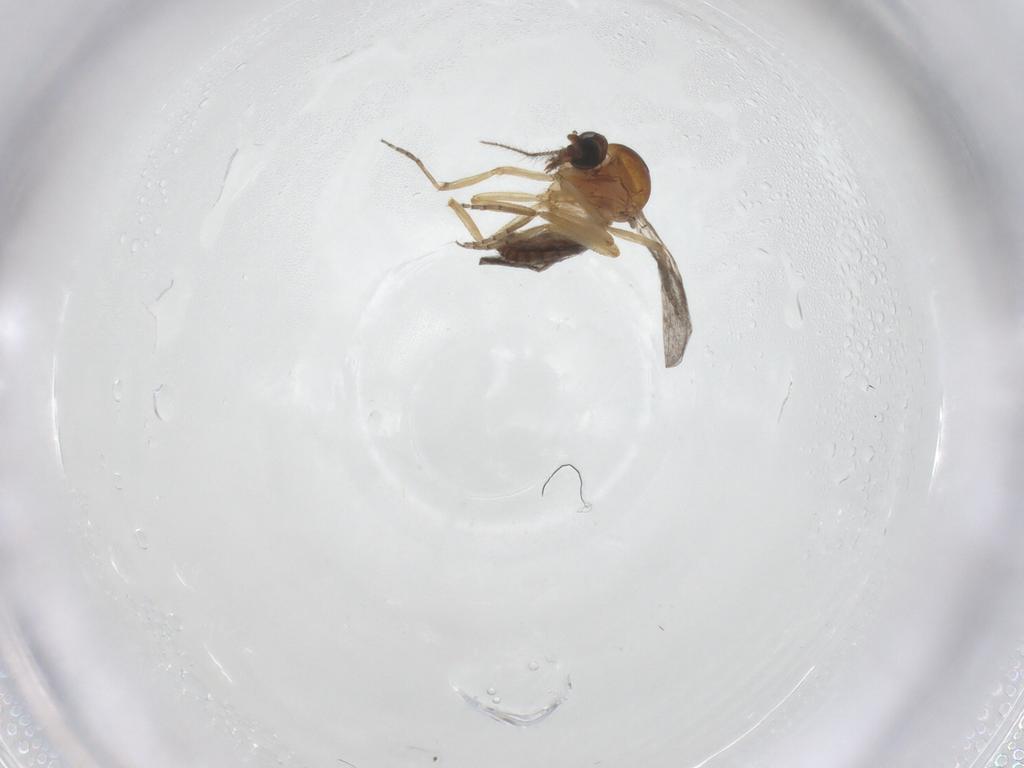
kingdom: Animalia
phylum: Arthropoda
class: Insecta
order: Diptera
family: Ceratopogonidae
